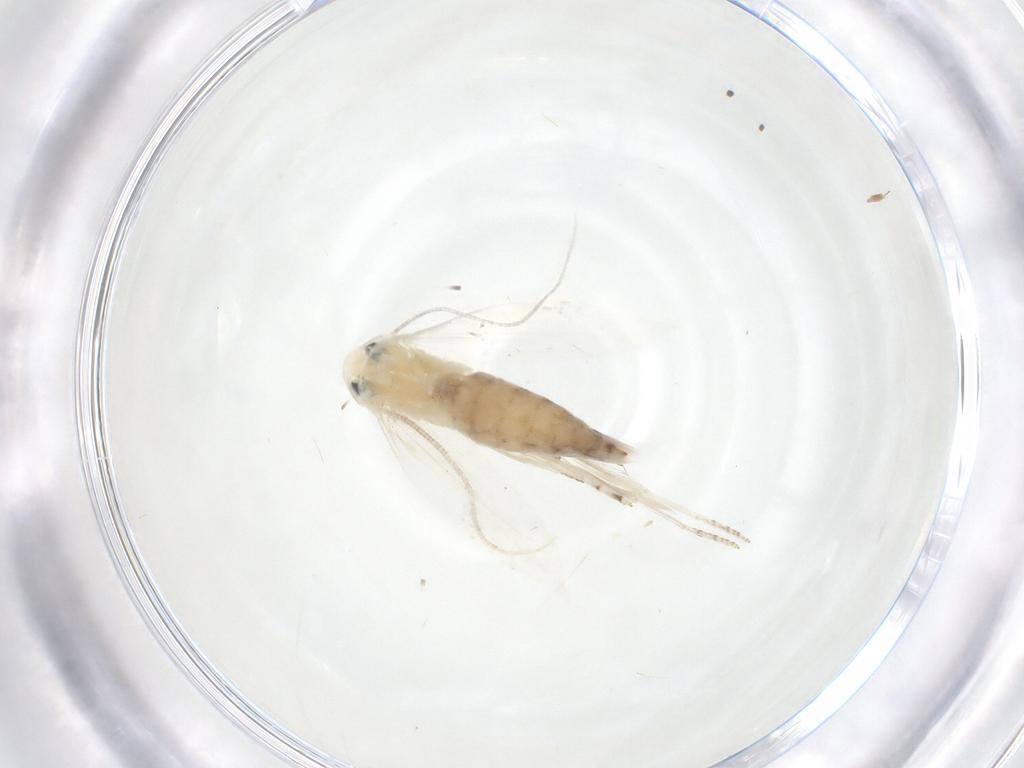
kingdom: Animalia
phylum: Arthropoda
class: Insecta
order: Lepidoptera
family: Lyonetiidae
